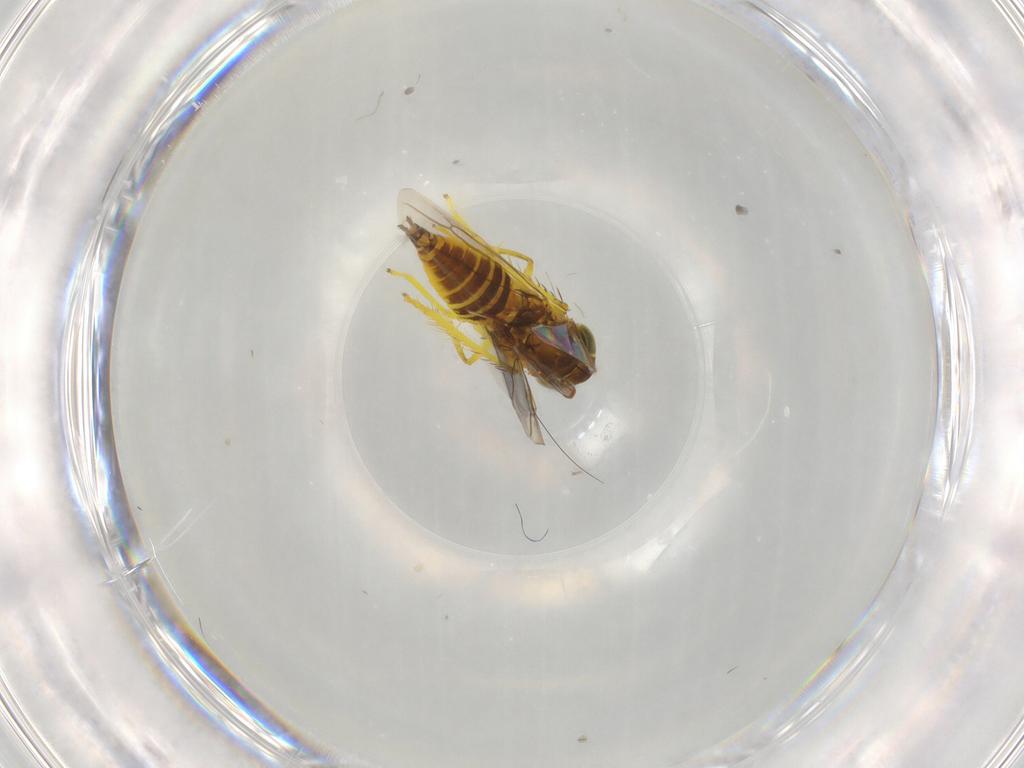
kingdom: Animalia
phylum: Arthropoda
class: Insecta
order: Hemiptera
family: Cicadellidae
